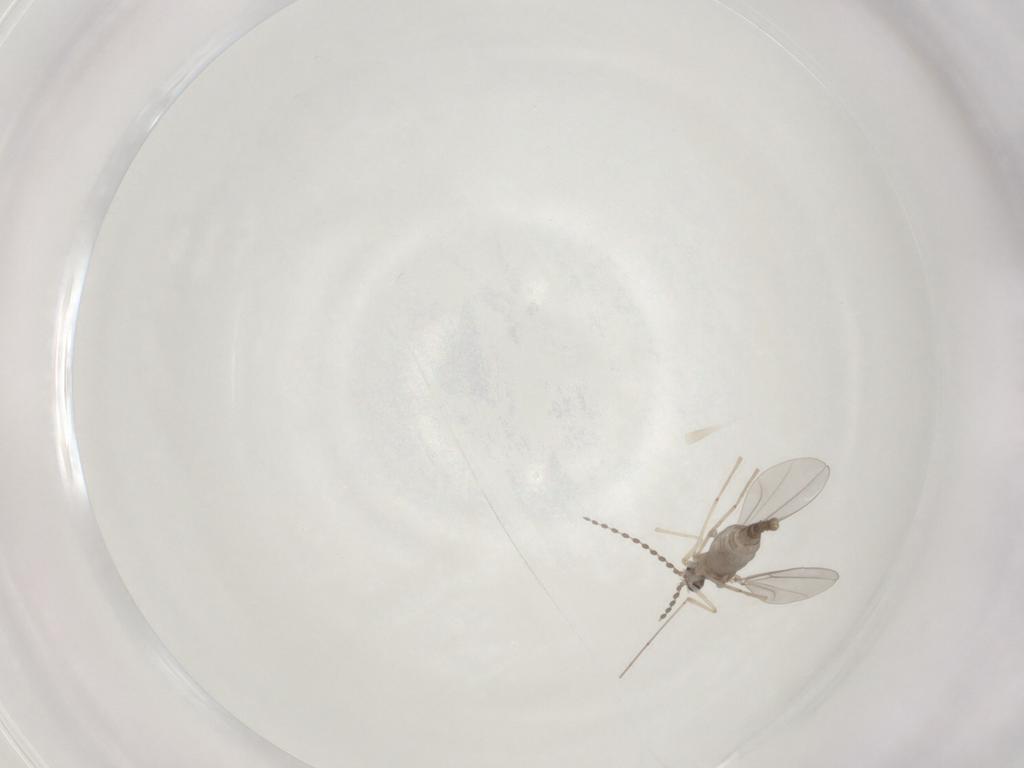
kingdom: Animalia
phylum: Arthropoda
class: Insecta
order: Diptera
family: Cecidomyiidae
